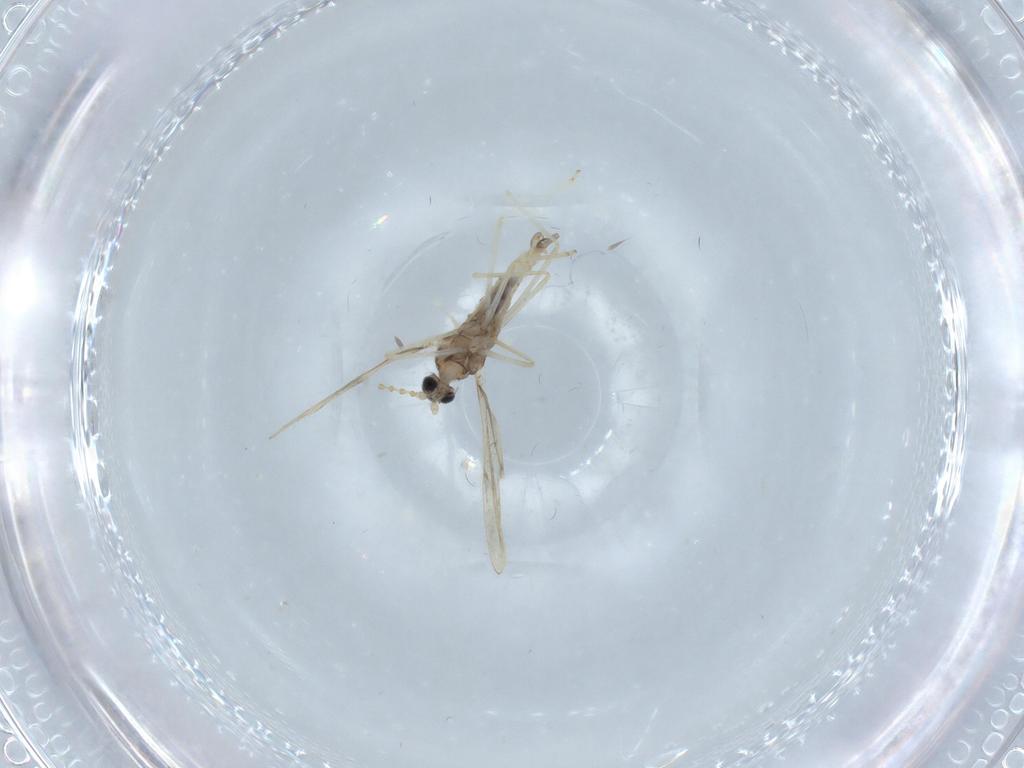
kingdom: Animalia
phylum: Arthropoda
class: Insecta
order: Diptera
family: Cecidomyiidae
